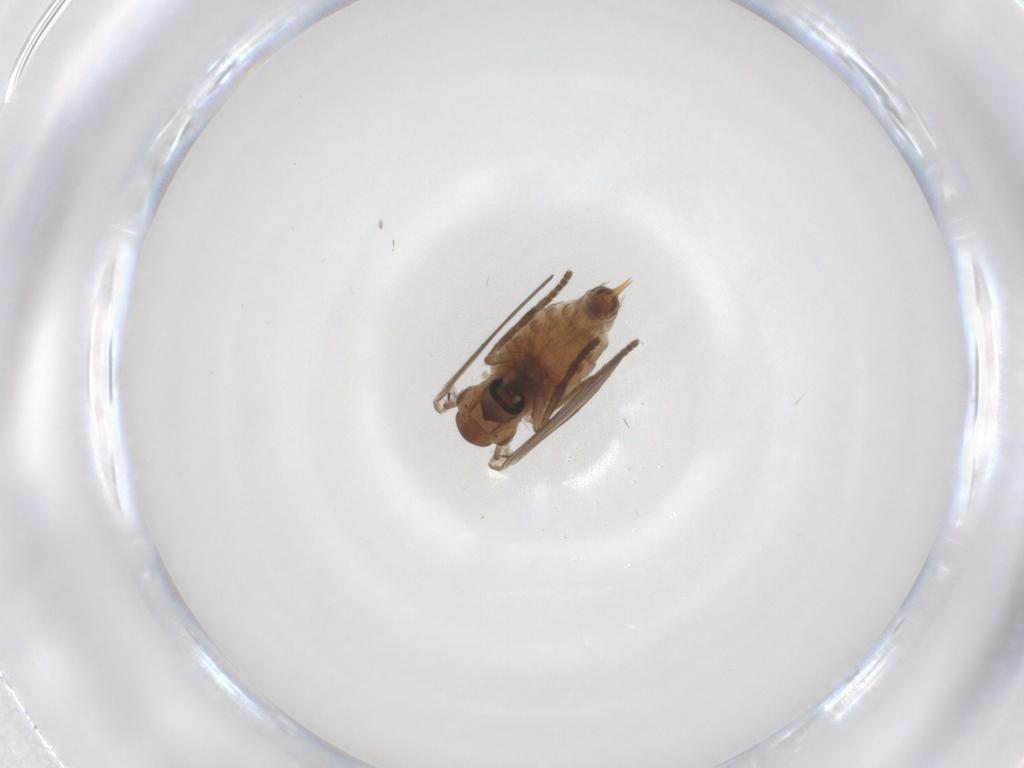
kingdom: Animalia
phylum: Arthropoda
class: Insecta
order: Diptera
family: Psychodidae
